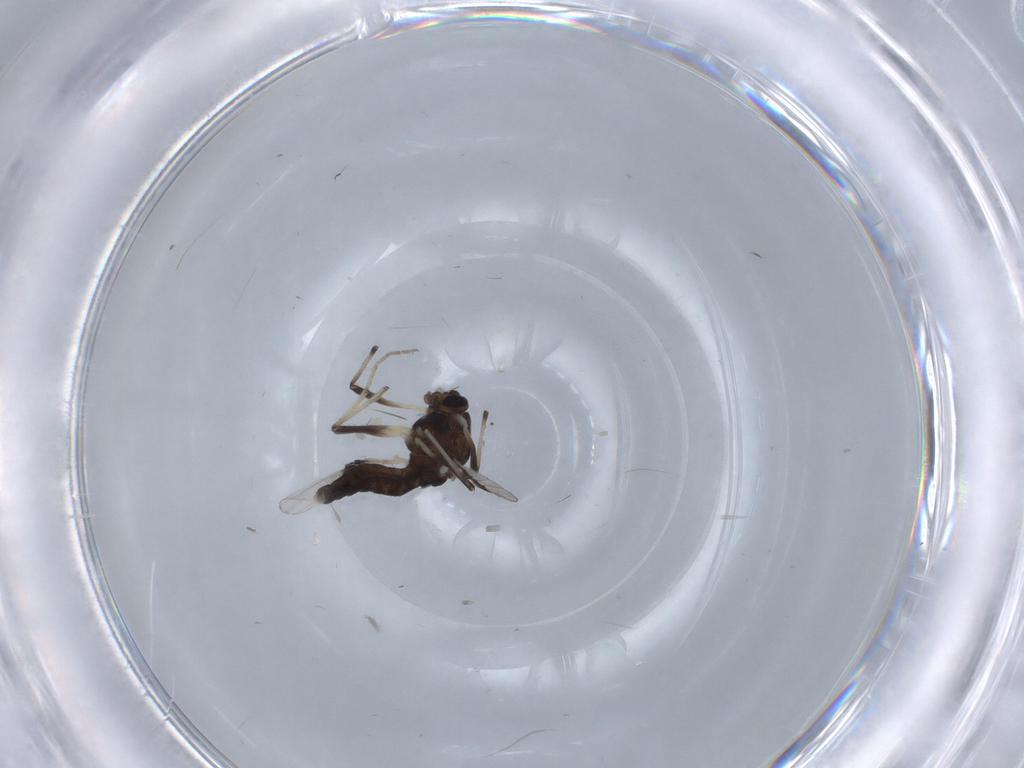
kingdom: Animalia
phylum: Arthropoda
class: Insecta
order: Diptera
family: Chironomidae
